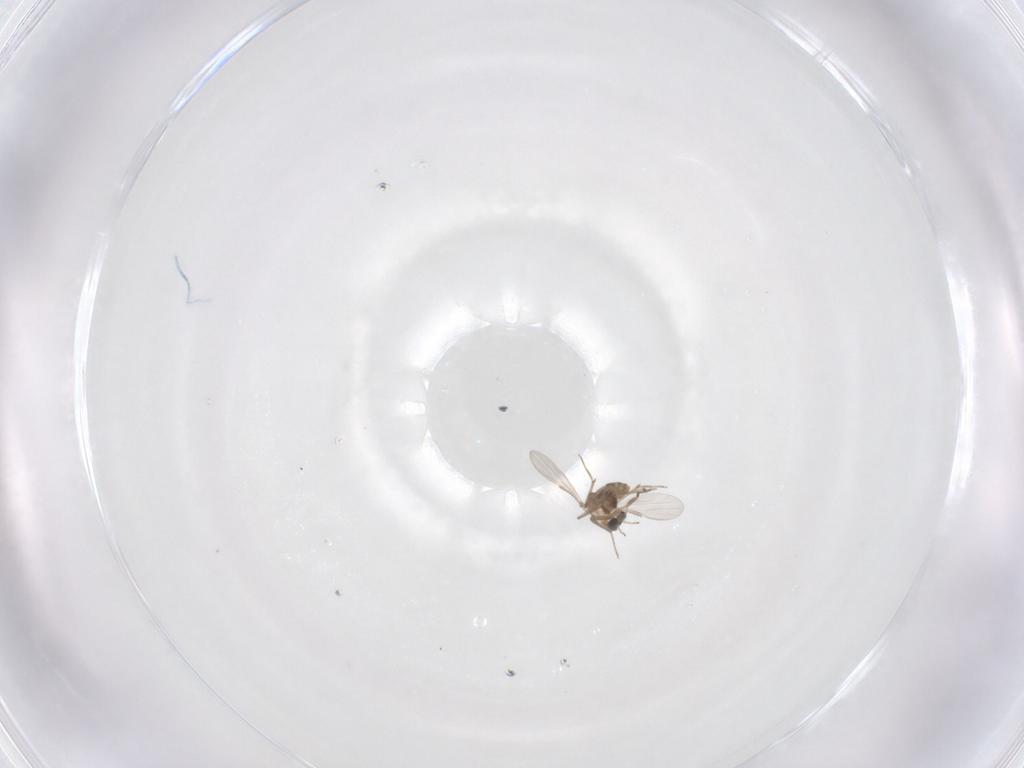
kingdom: Animalia
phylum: Arthropoda
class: Insecta
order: Diptera
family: Chironomidae
